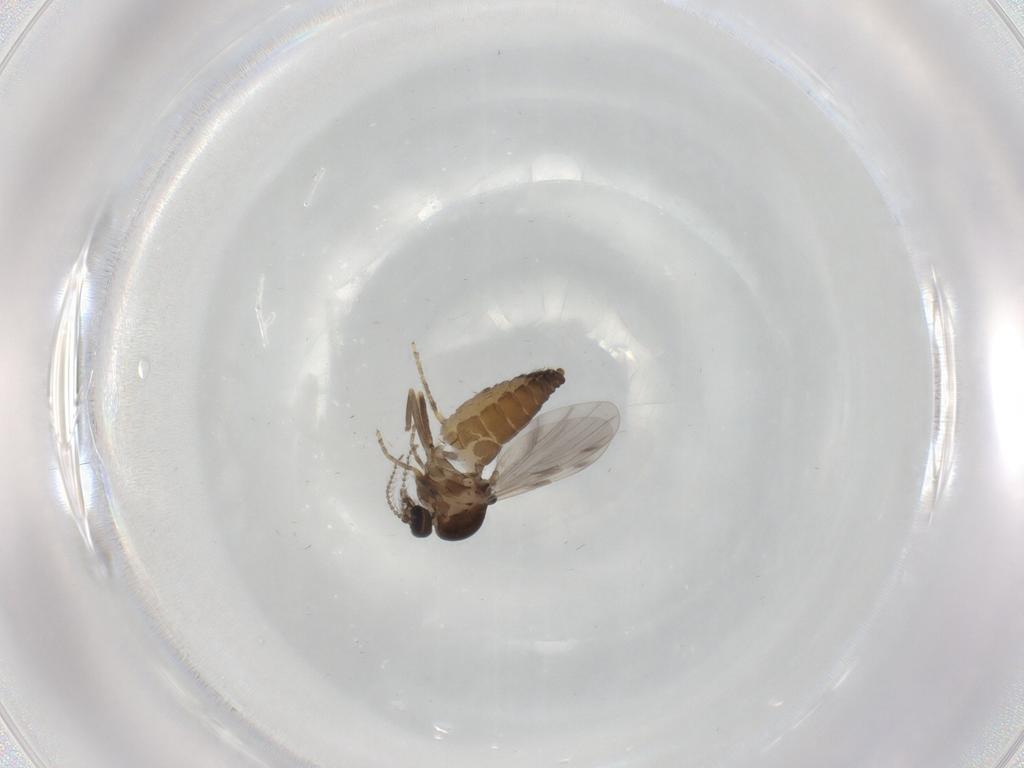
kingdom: Animalia
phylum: Arthropoda
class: Insecta
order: Diptera
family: Ceratopogonidae
